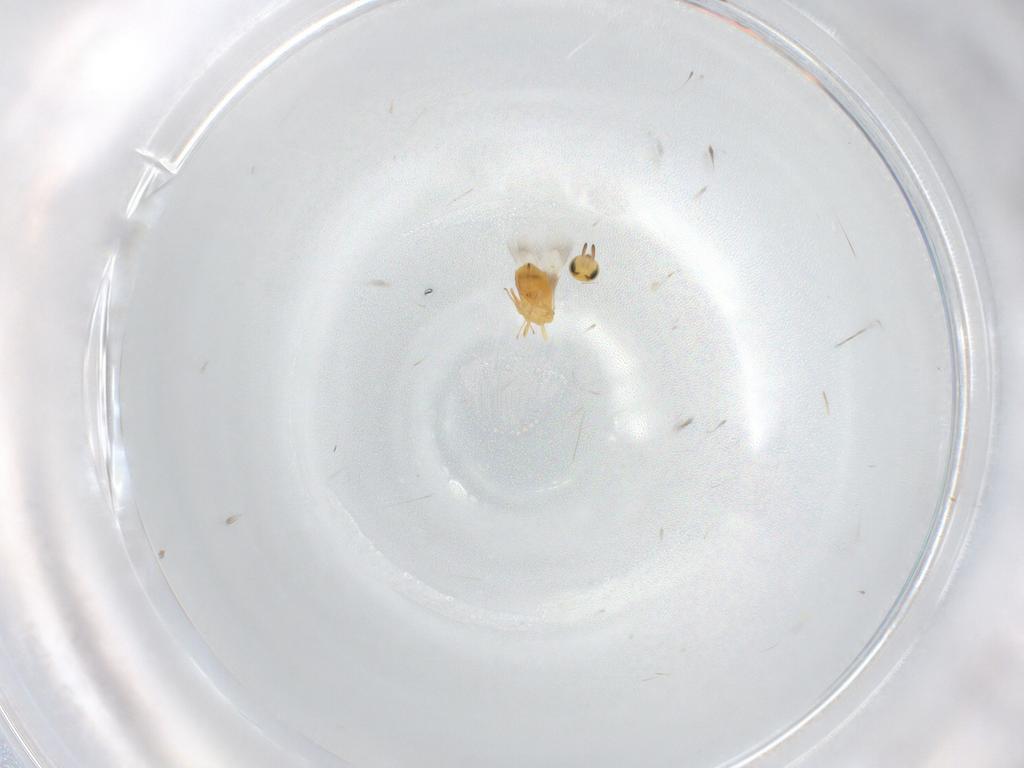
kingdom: Animalia
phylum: Arthropoda
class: Insecta
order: Hymenoptera
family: Signiphoridae
